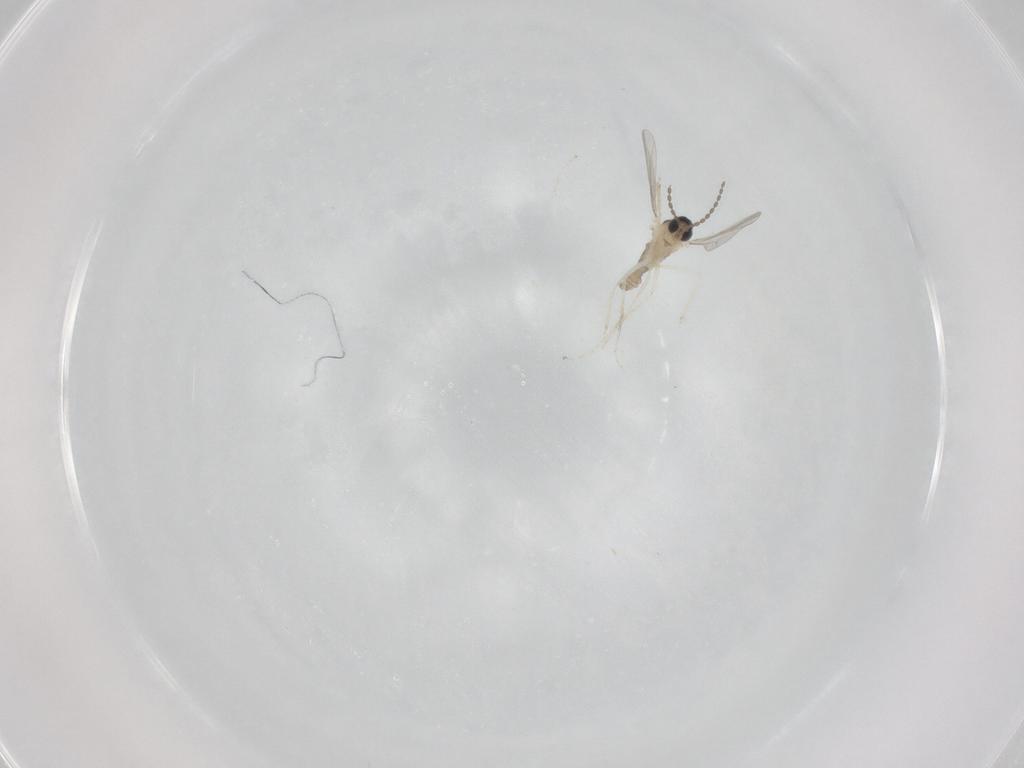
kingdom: Animalia
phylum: Arthropoda
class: Insecta
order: Diptera
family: Cecidomyiidae
